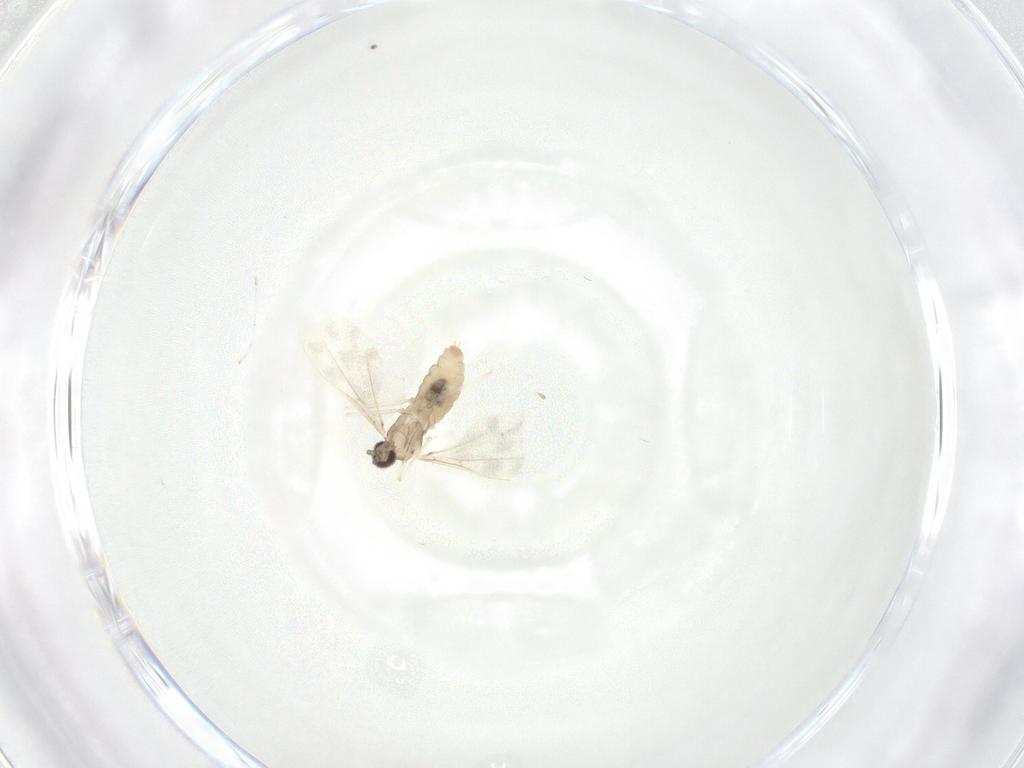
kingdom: Animalia
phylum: Arthropoda
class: Insecta
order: Diptera
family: Cecidomyiidae
